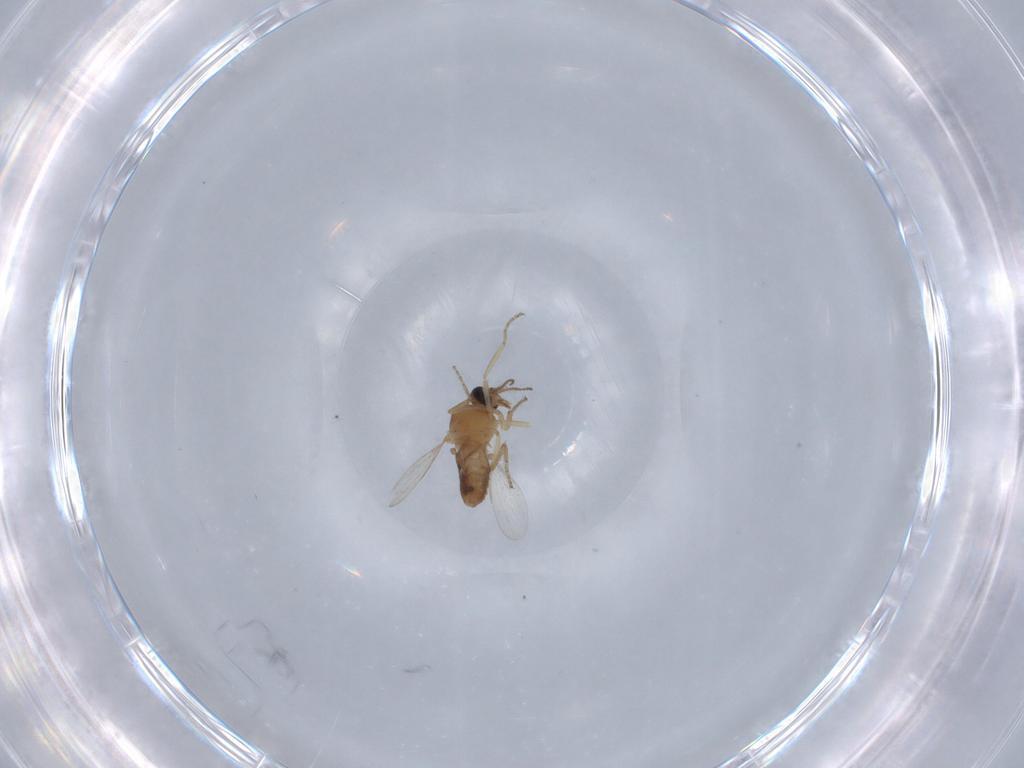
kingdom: Animalia
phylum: Arthropoda
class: Insecta
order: Diptera
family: Ceratopogonidae
